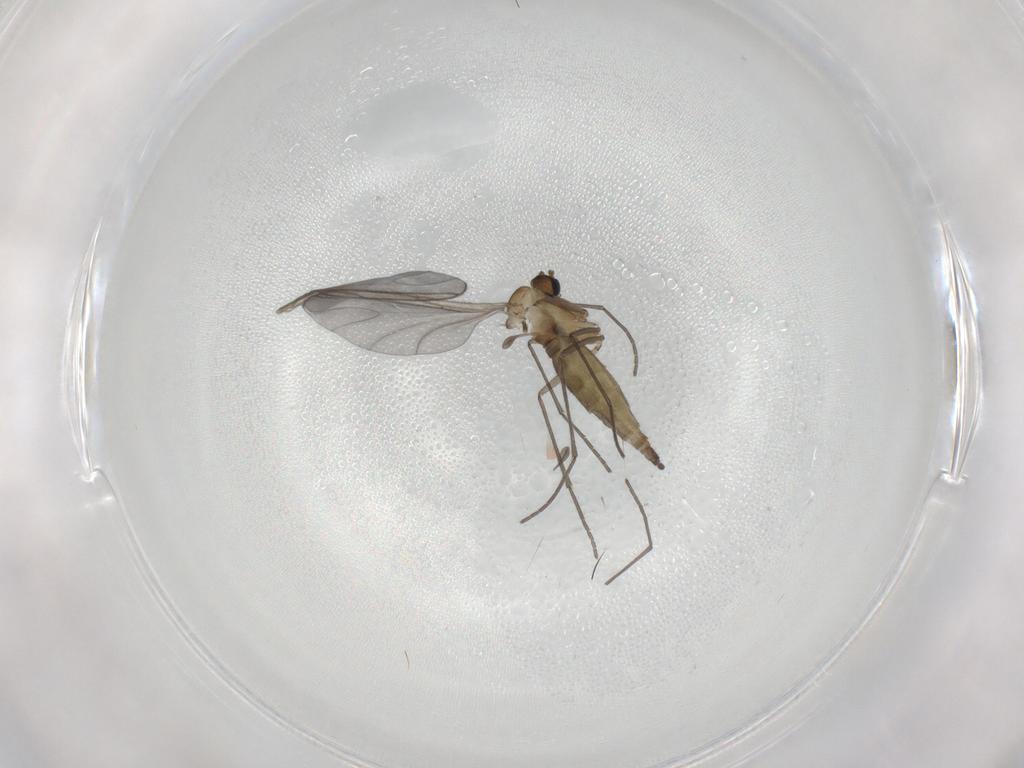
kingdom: Animalia
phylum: Arthropoda
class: Insecta
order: Diptera
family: Sciaridae
